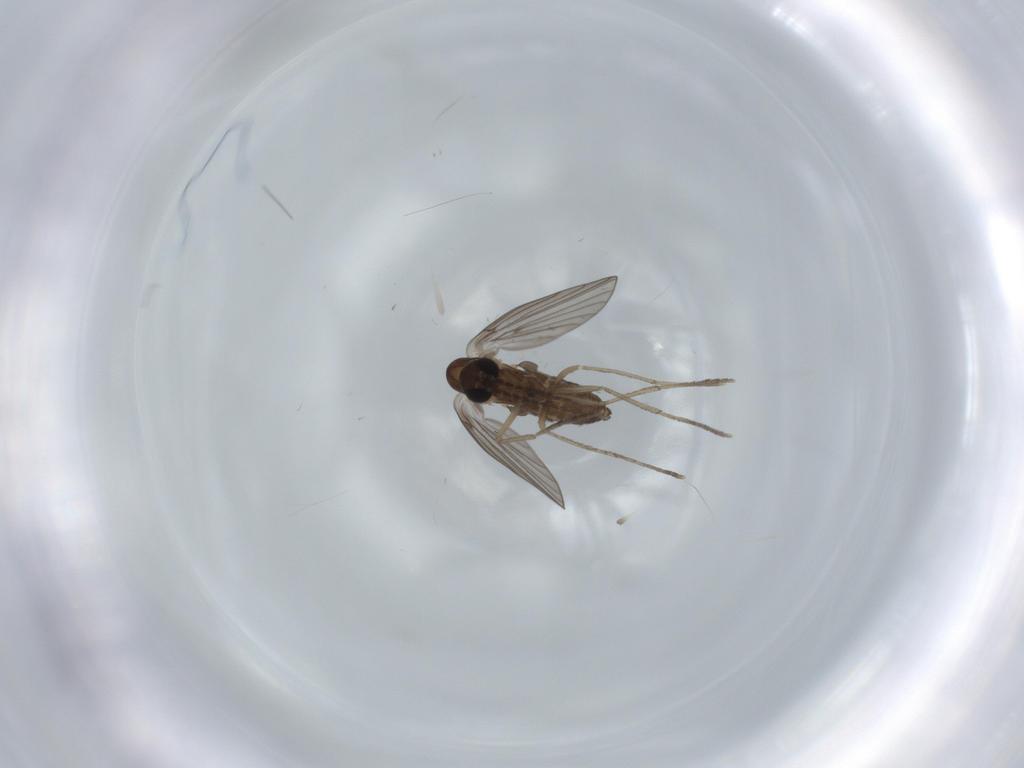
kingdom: Animalia
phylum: Arthropoda
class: Insecta
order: Diptera
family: Psychodidae
